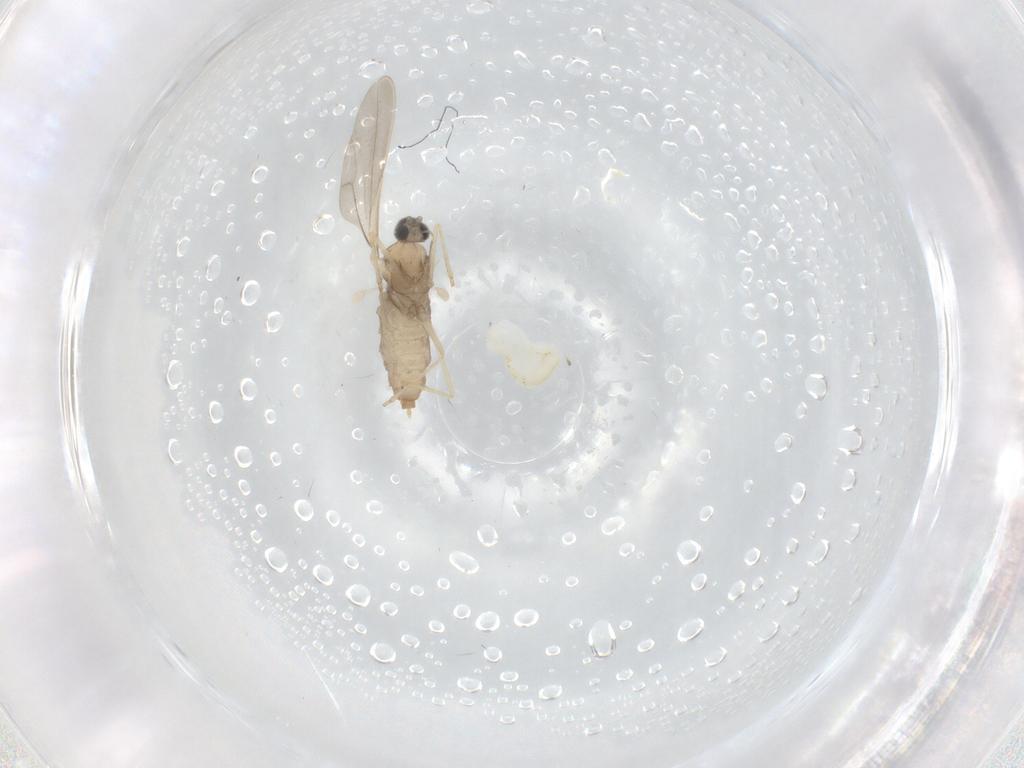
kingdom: Animalia
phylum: Arthropoda
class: Insecta
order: Diptera
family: Cecidomyiidae
